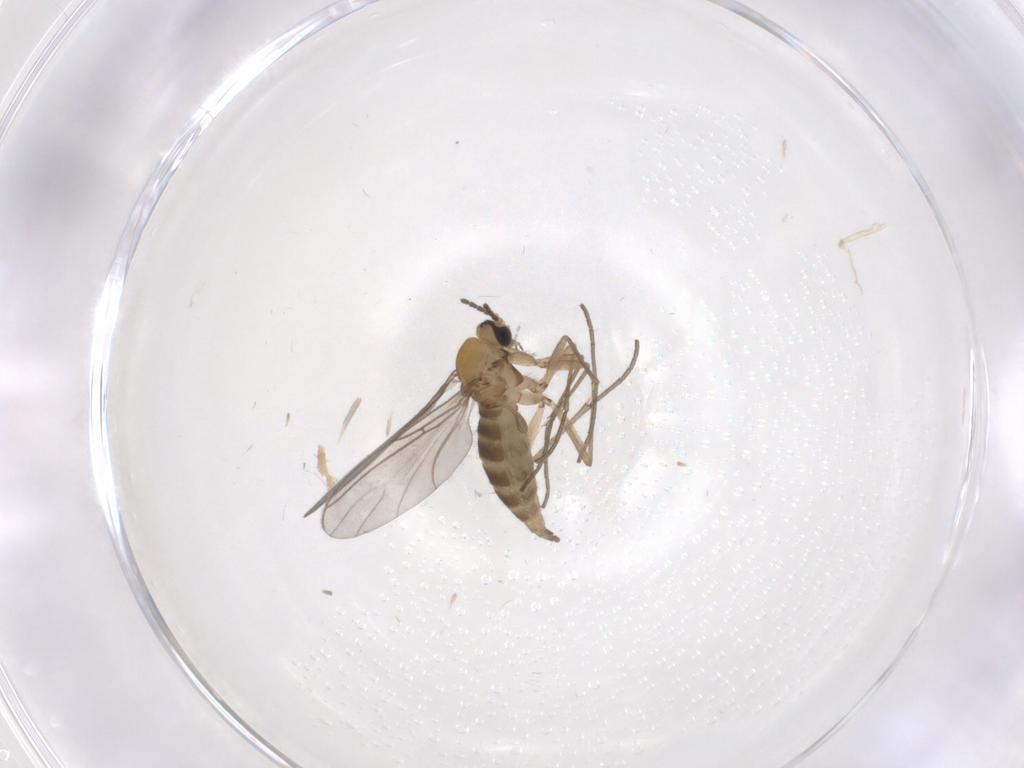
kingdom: Animalia
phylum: Arthropoda
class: Insecta
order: Diptera
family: Sciaridae
